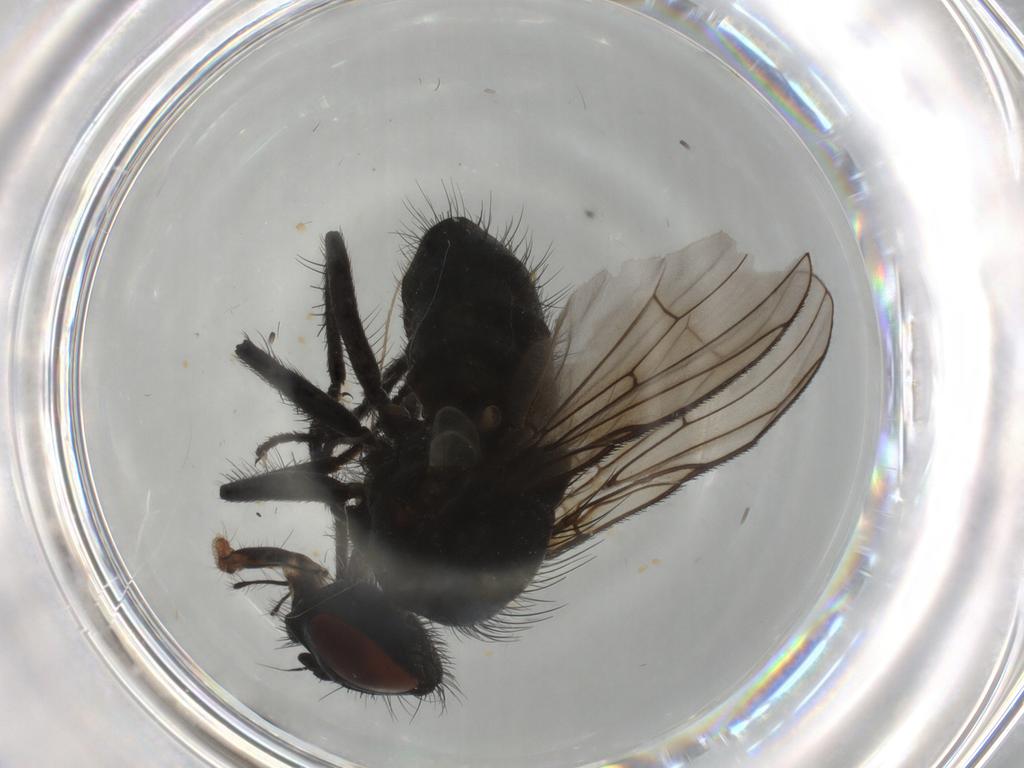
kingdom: Animalia
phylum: Arthropoda
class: Insecta
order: Diptera
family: Muscidae
